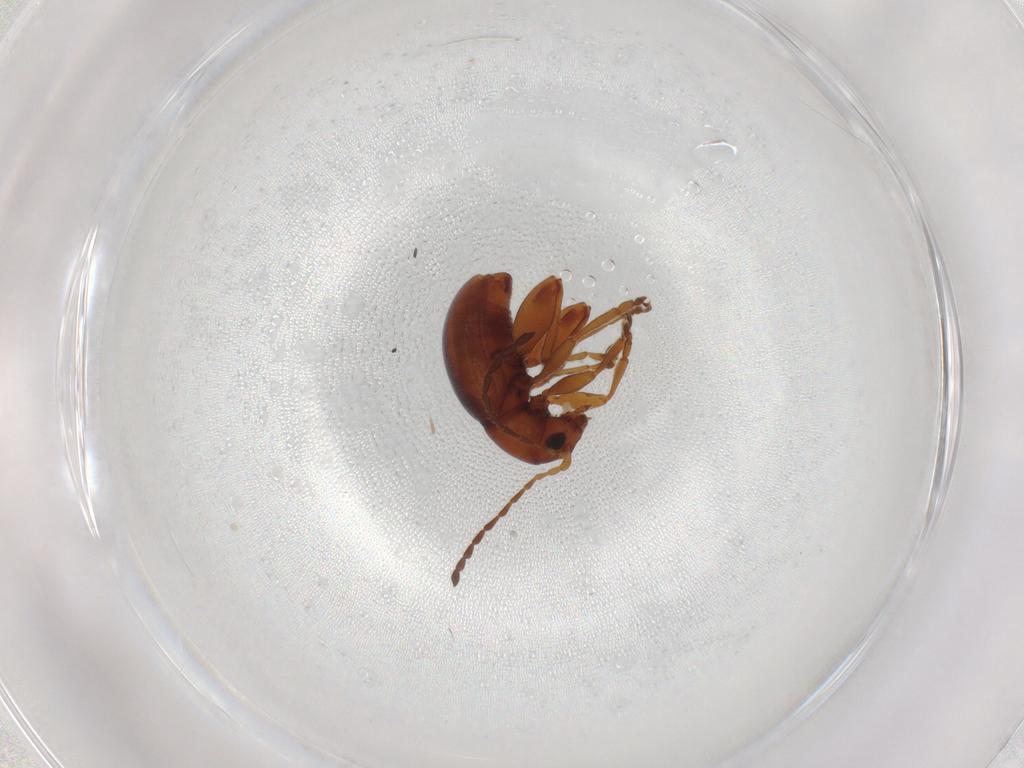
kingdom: Animalia
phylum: Arthropoda
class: Insecta
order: Coleoptera
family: Chrysomelidae
